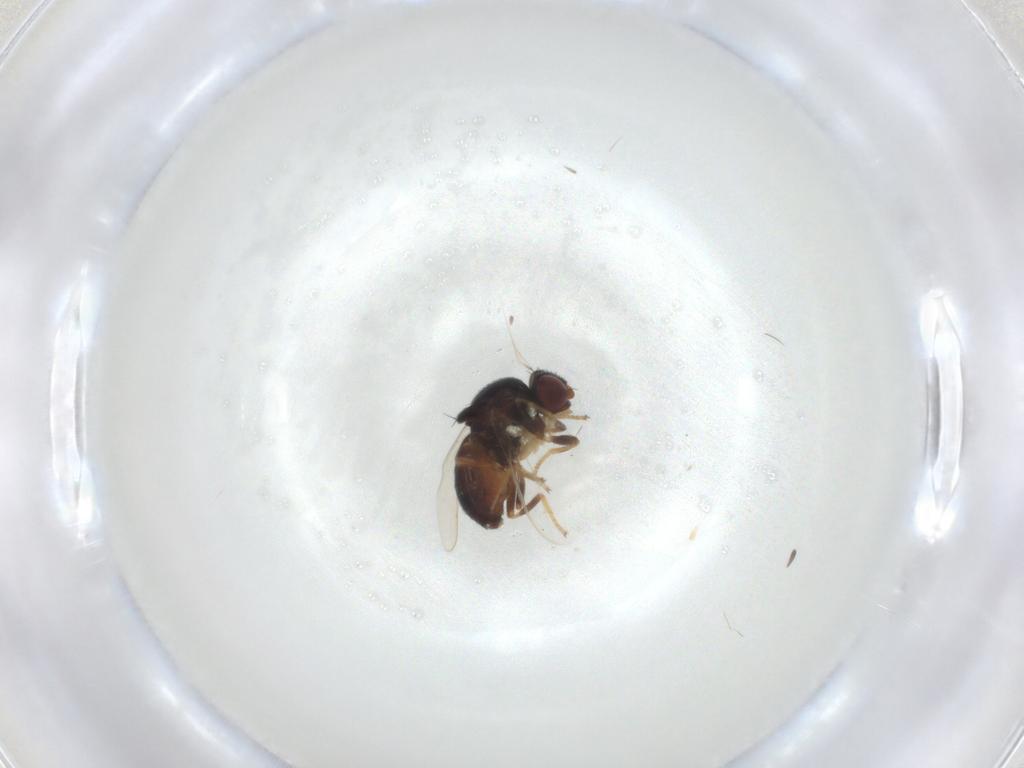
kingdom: Animalia
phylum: Arthropoda
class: Insecta
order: Diptera
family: Chloropidae
